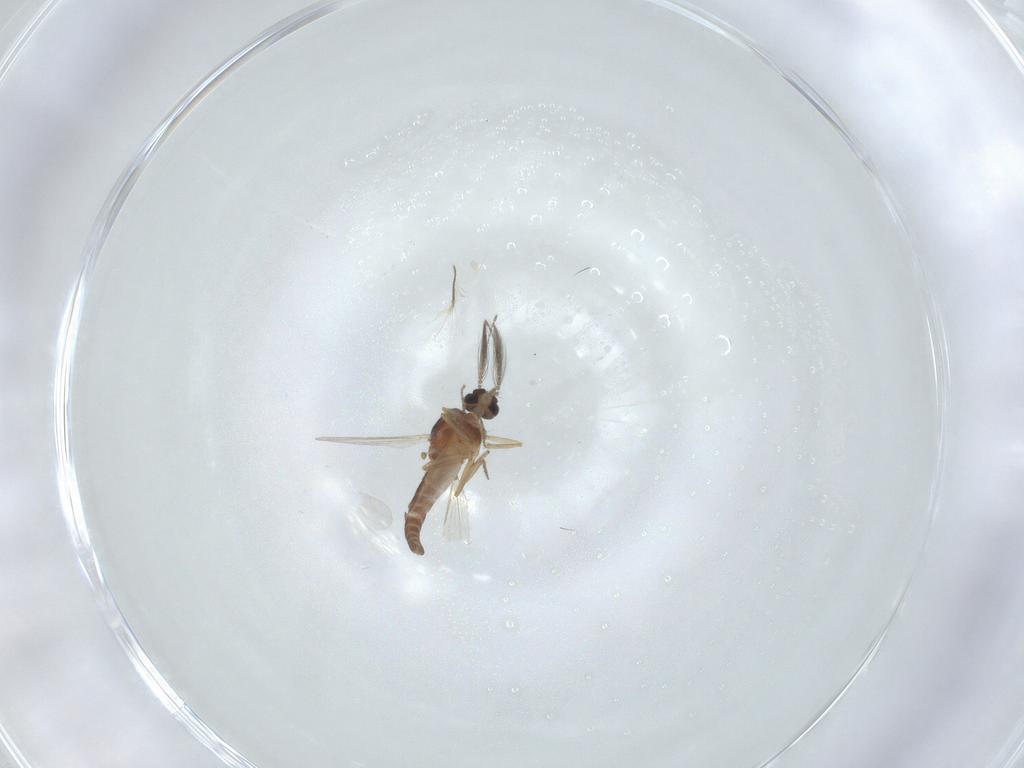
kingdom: Animalia
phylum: Arthropoda
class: Insecta
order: Diptera
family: Ceratopogonidae
